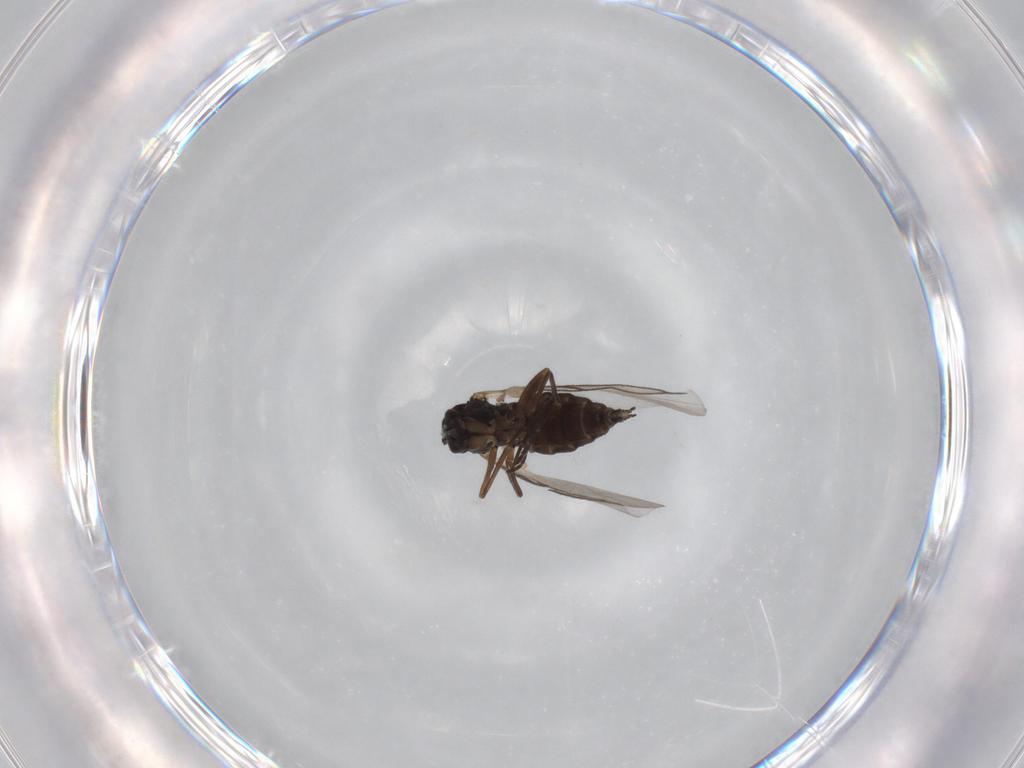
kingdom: Animalia
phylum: Arthropoda
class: Insecta
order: Diptera
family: Sciaridae
